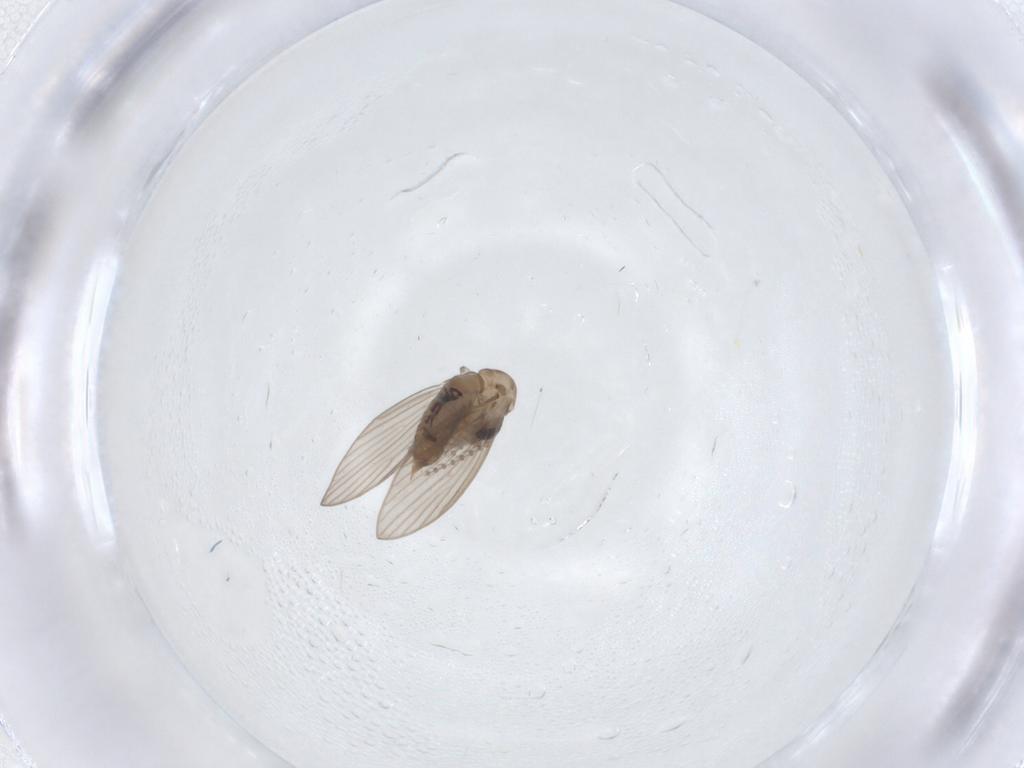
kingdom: Animalia
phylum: Arthropoda
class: Insecta
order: Diptera
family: Psychodidae
